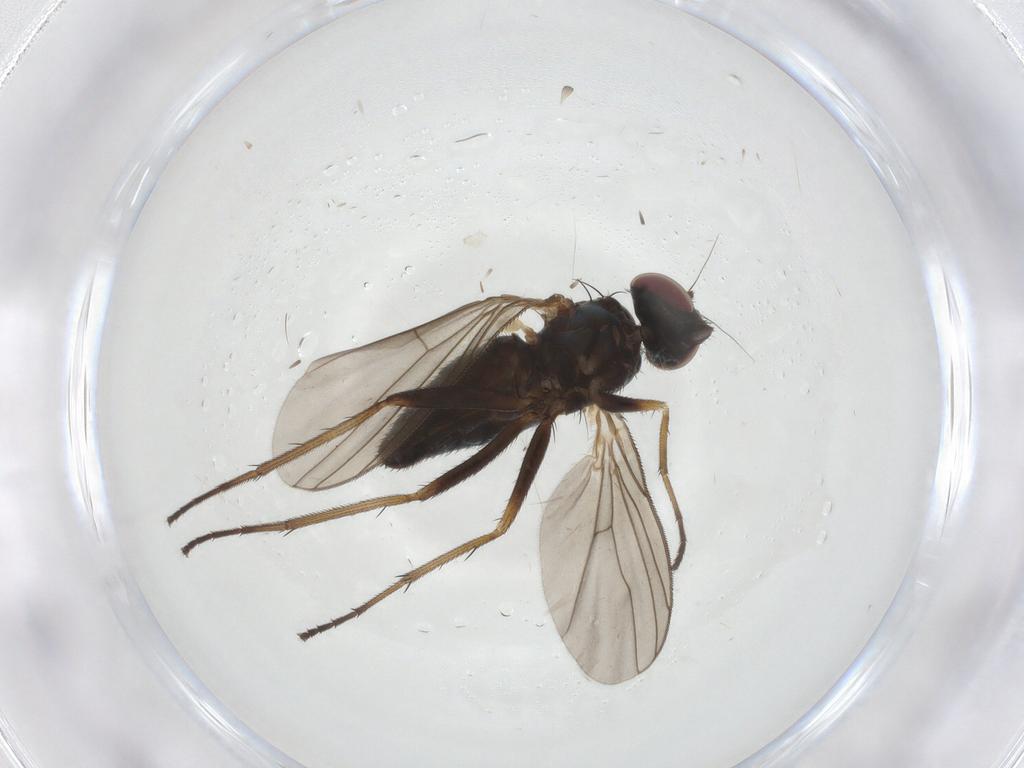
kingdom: Animalia
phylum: Arthropoda
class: Insecta
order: Diptera
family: Dolichopodidae
